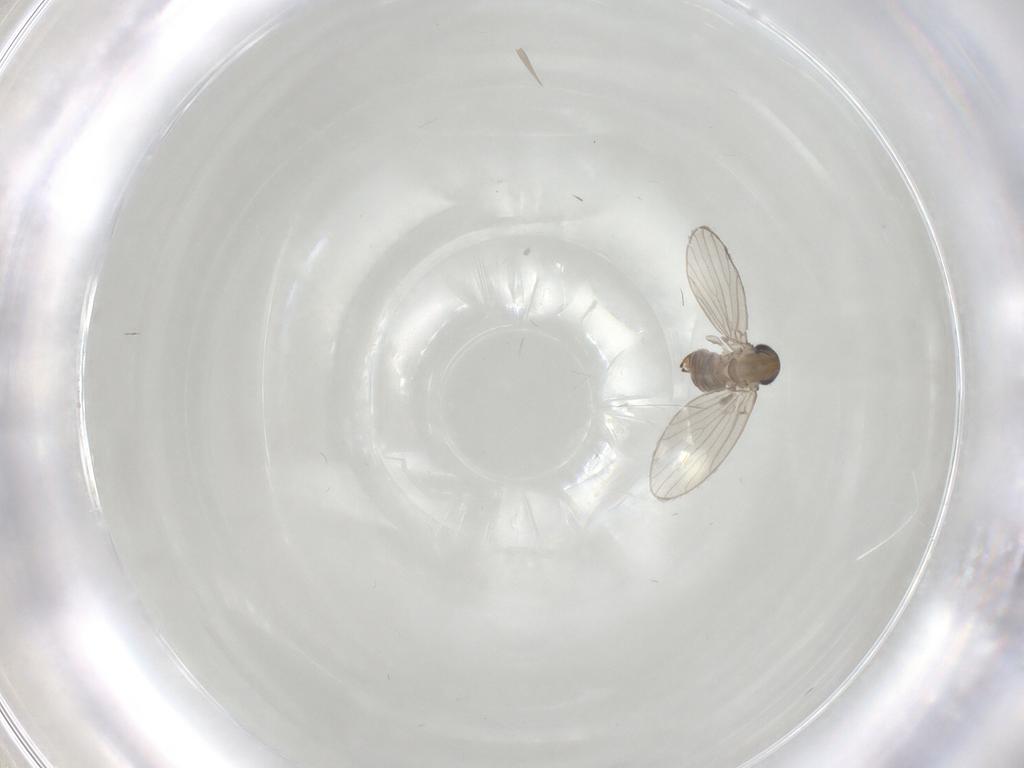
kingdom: Animalia
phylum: Arthropoda
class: Insecta
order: Diptera
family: Psychodidae
